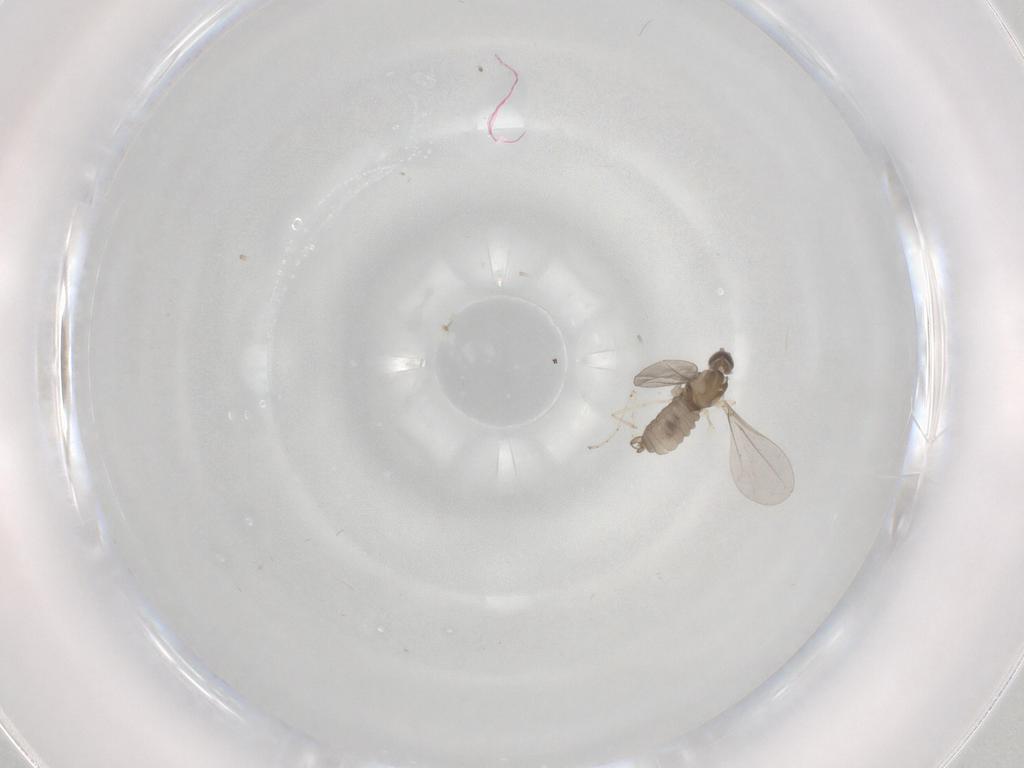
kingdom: Animalia
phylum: Arthropoda
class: Insecta
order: Diptera
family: Cecidomyiidae
